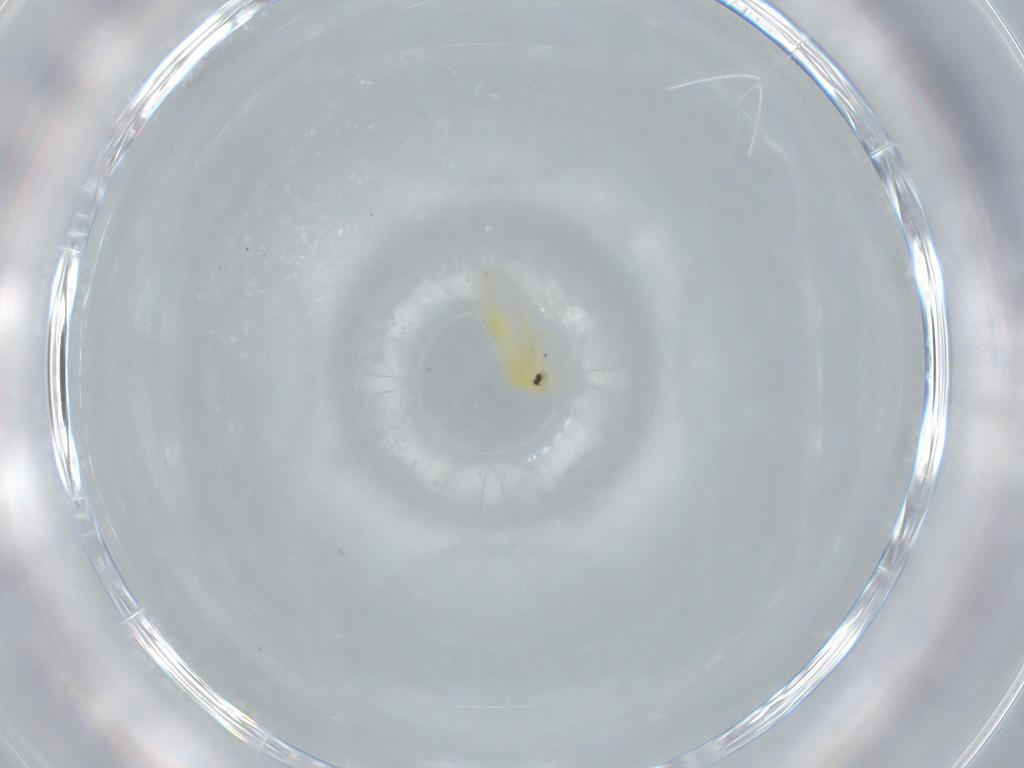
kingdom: Animalia
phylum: Arthropoda
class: Insecta
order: Hemiptera
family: Aleyrodidae
